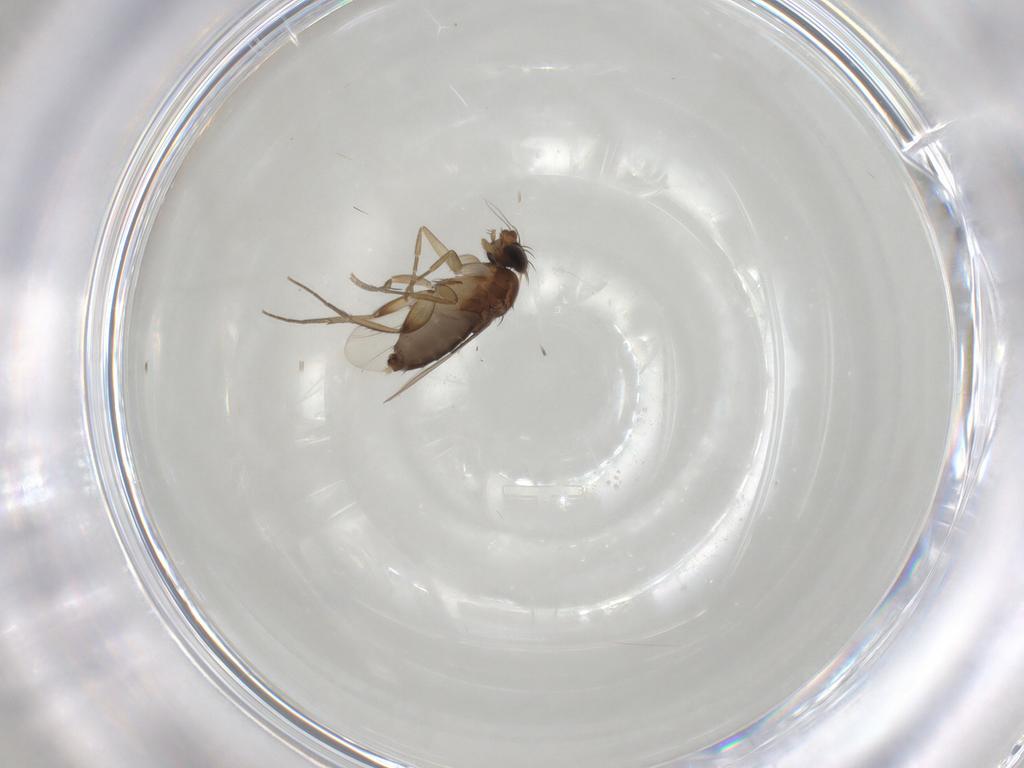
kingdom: Animalia
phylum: Arthropoda
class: Insecta
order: Diptera
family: Phoridae
